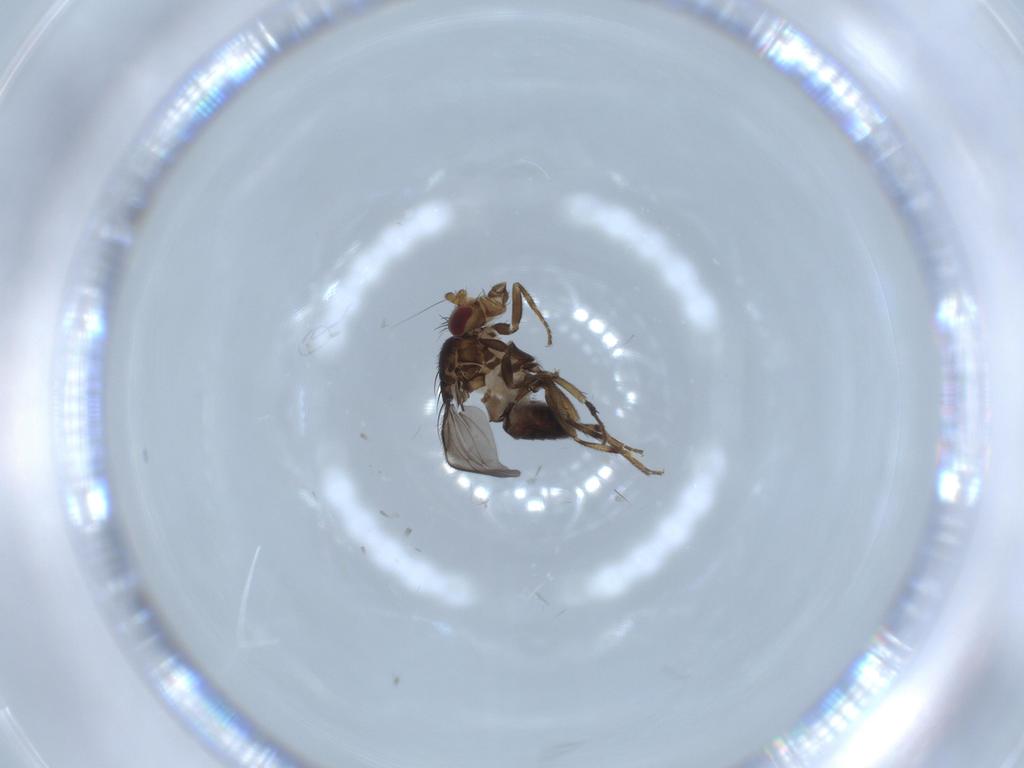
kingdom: Animalia
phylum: Arthropoda
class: Insecta
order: Diptera
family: Sphaeroceridae
